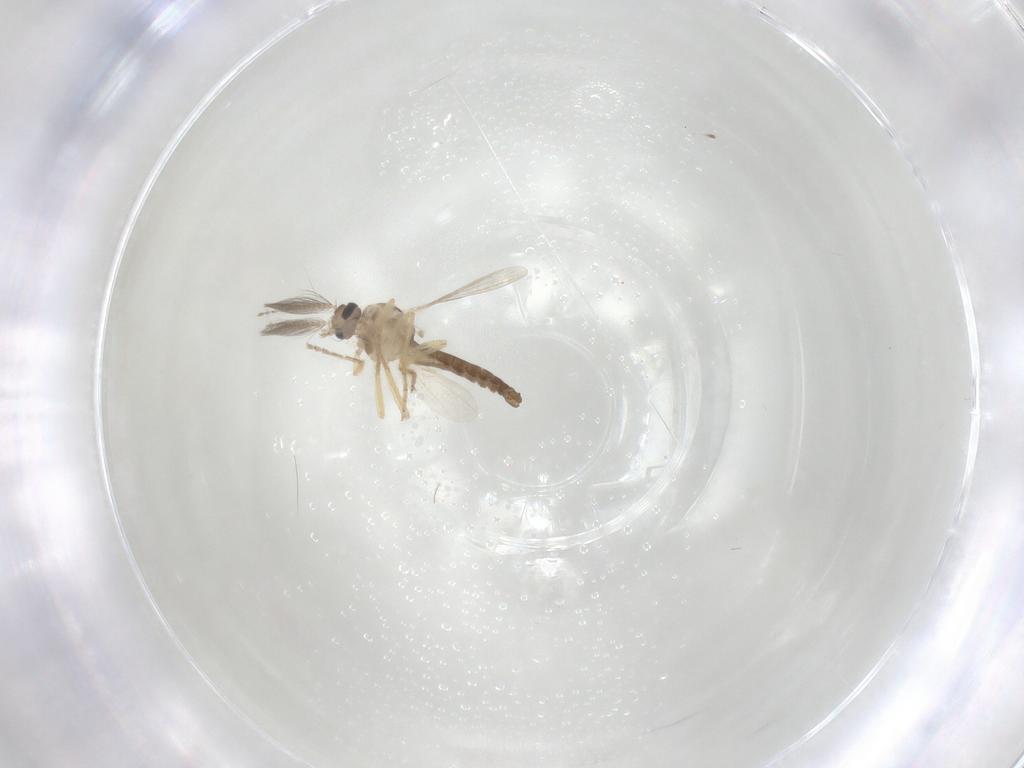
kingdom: Animalia
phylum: Arthropoda
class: Insecta
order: Diptera
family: Ceratopogonidae
